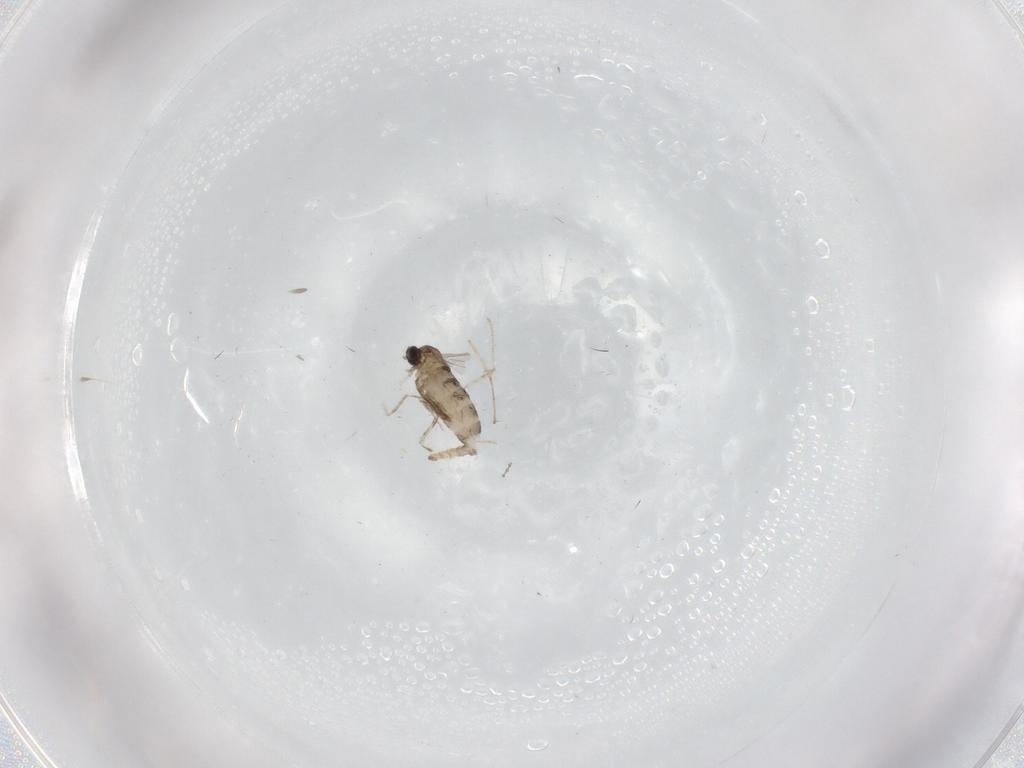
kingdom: Animalia
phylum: Arthropoda
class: Insecta
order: Diptera
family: Cecidomyiidae
